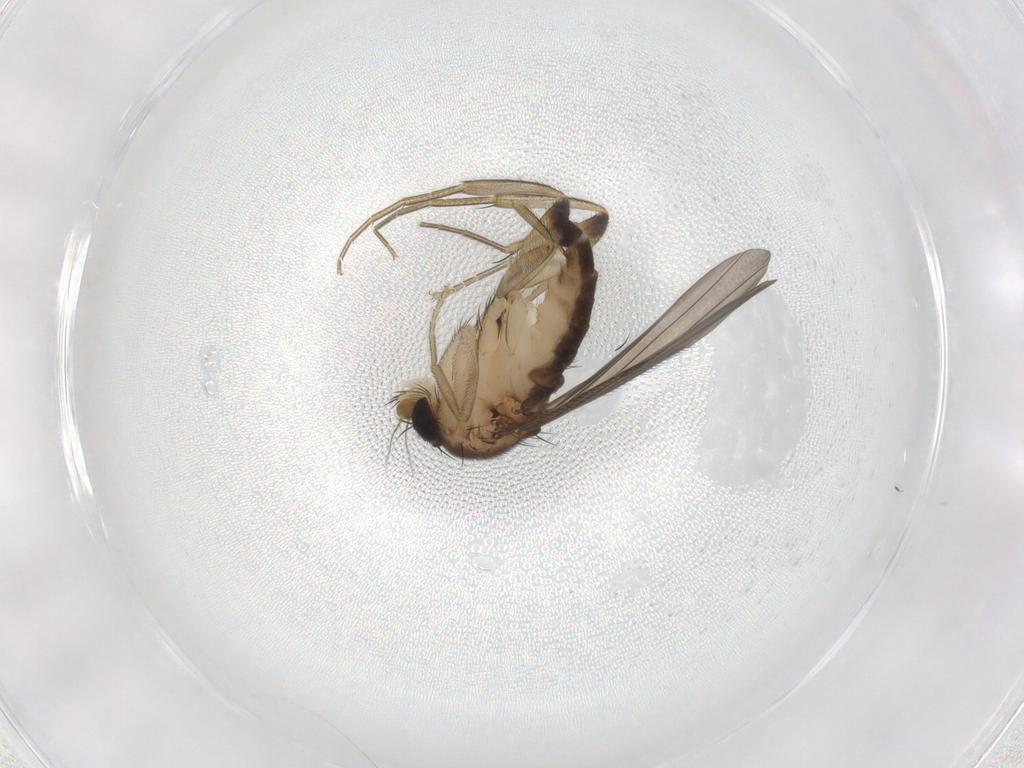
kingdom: Animalia
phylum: Arthropoda
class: Insecta
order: Diptera
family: Phoridae
